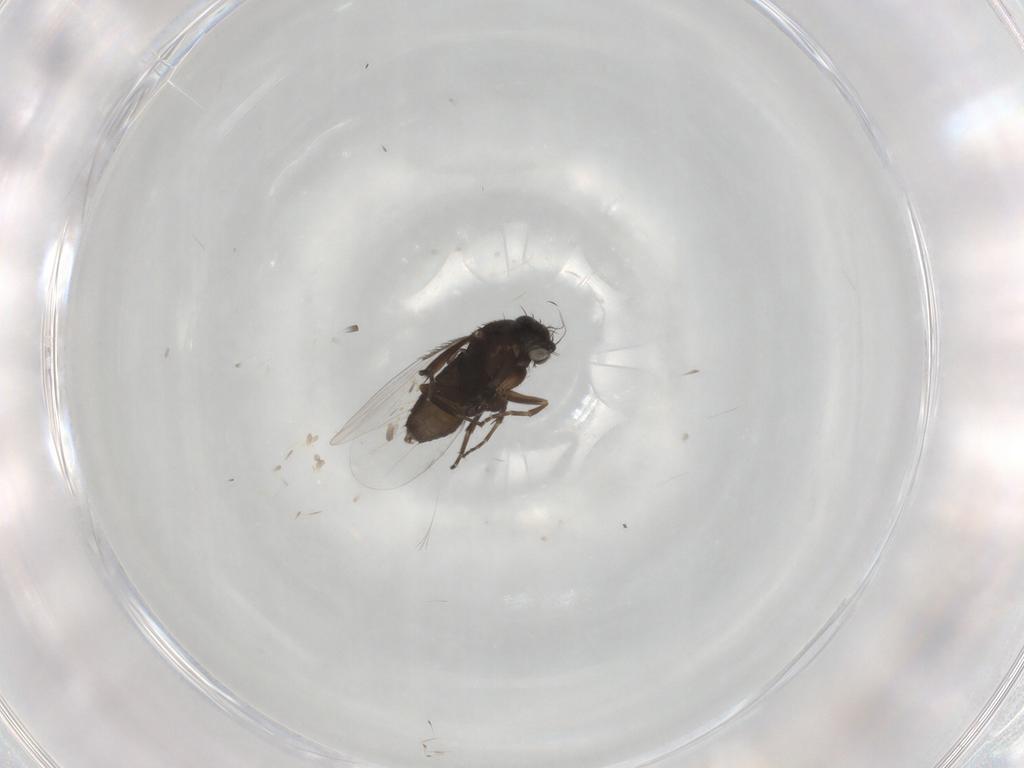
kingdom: Animalia
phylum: Arthropoda
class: Insecta
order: Diptera
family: Phoridae
